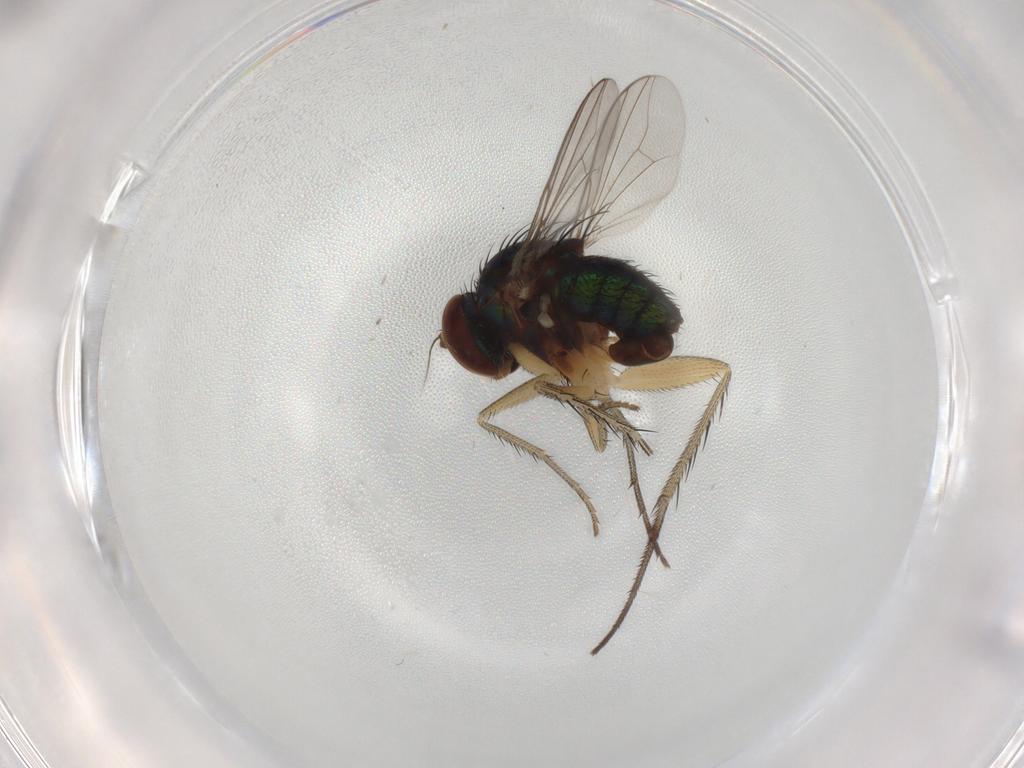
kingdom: Animalia
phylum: Arthropoda
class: Insecta
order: Diptera
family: Dolichopodidae
